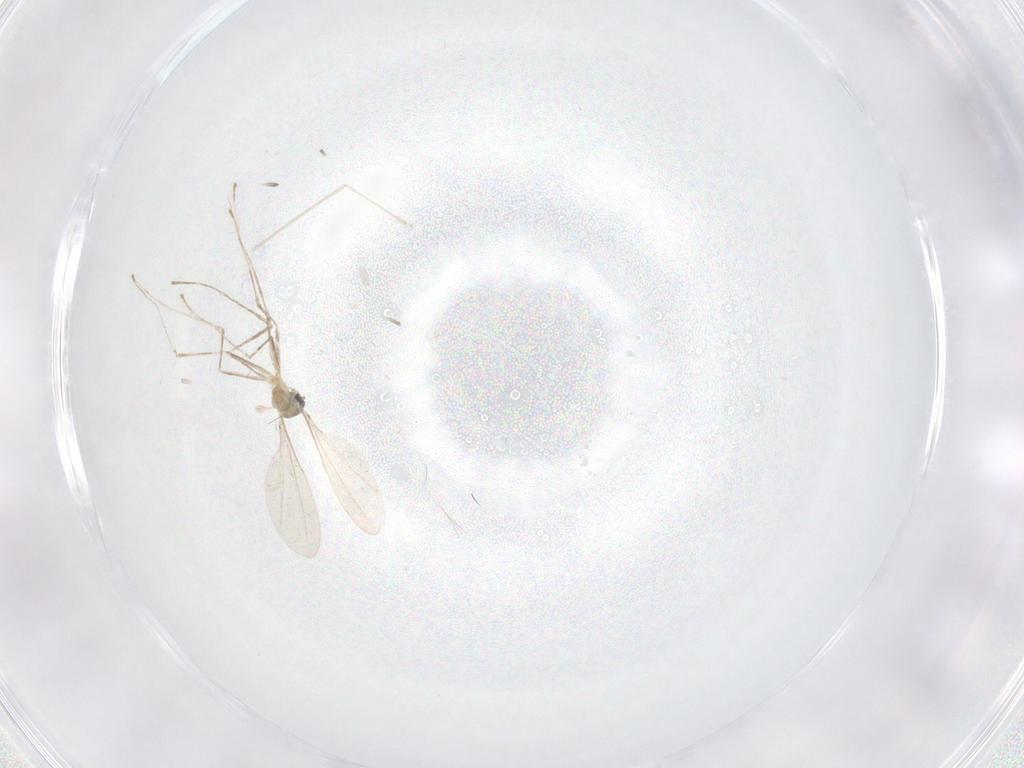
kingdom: Animalia
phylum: Arthropoda
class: Insecta
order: Diptera
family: Cecidomyiidae
